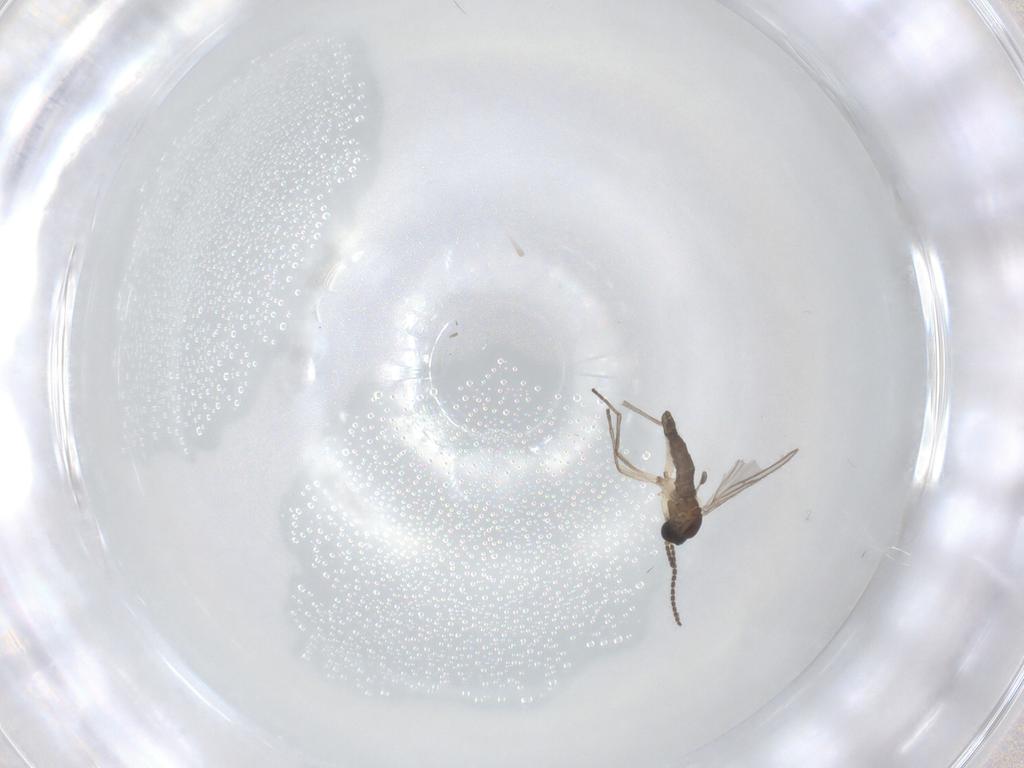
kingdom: Animalia
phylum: Arthropoda
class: Insecta
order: Diptera
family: Sciaridae
